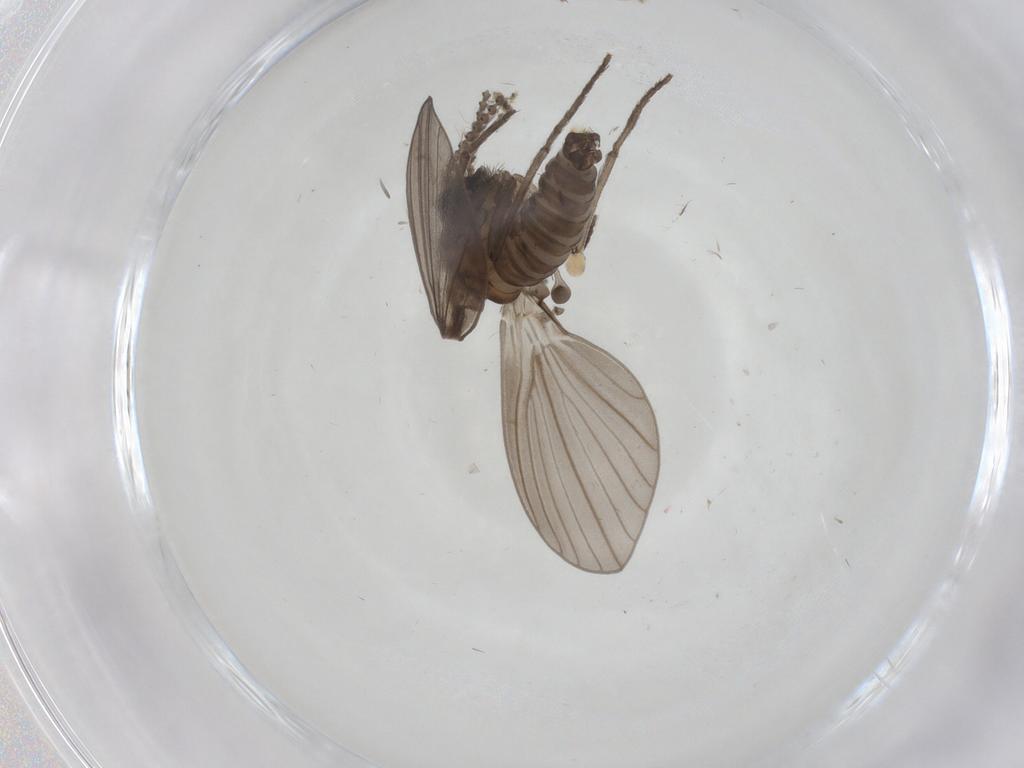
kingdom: Animalia
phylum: Arthropoda
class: Insecta
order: Diptera
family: Psychodidae
